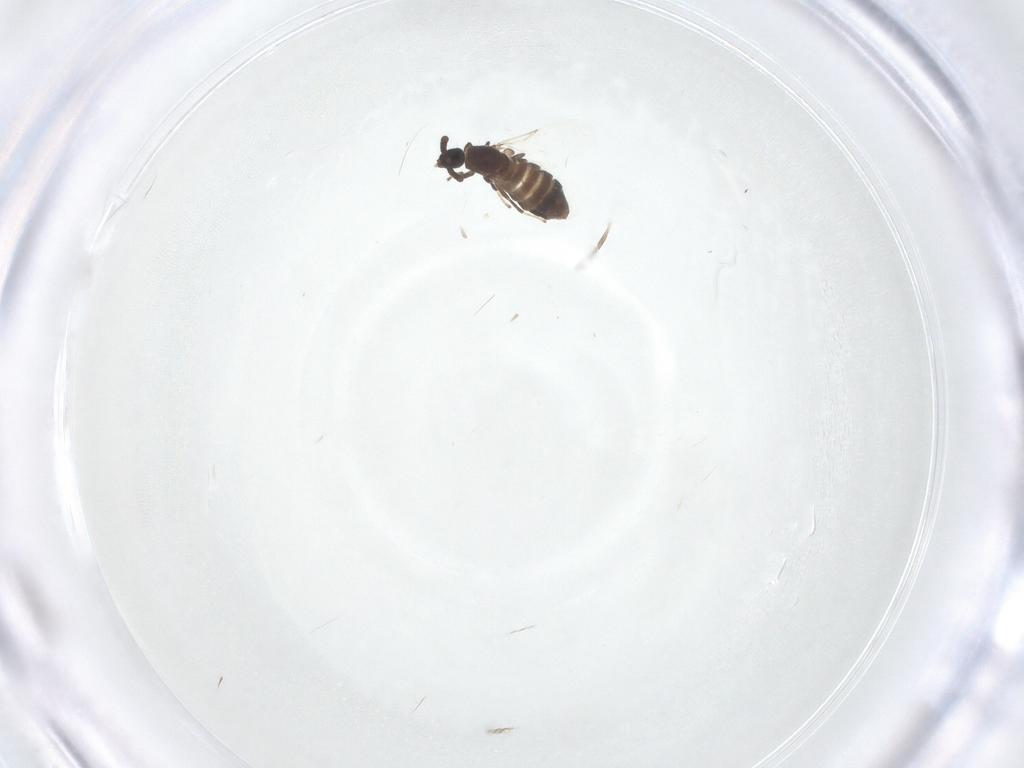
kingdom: Animalia
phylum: Arthropoda
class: Insecta
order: Diptera
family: Scatopsidae
